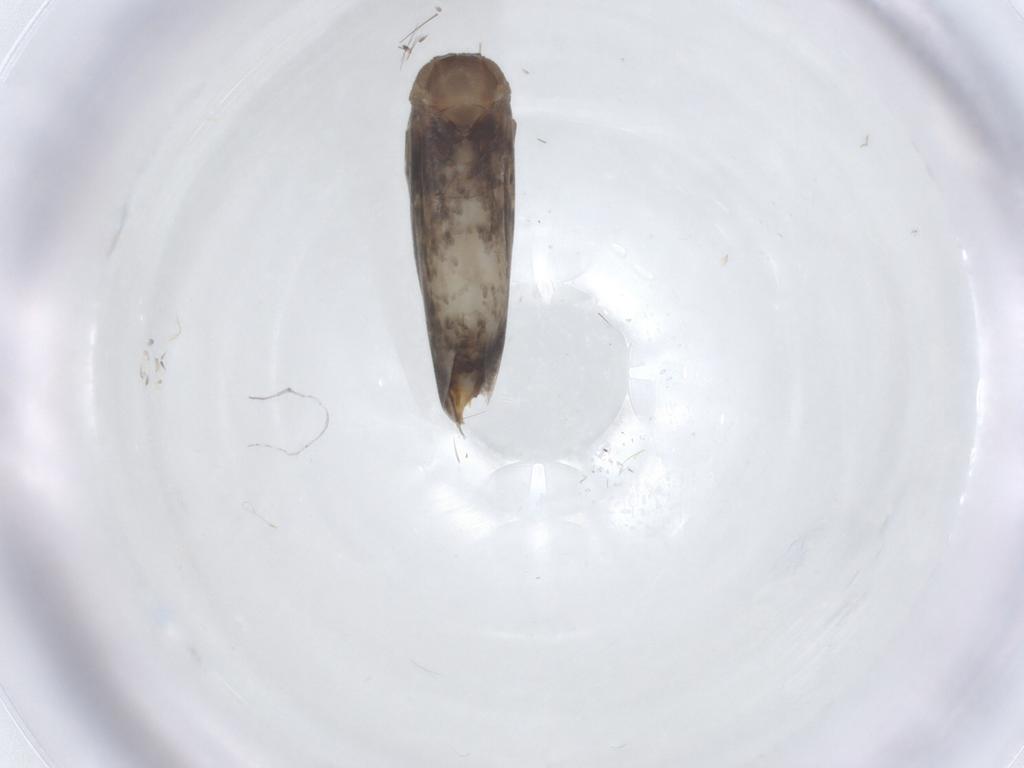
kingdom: Animalia
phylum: Arthropoda
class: Insecta
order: Lepidoptera
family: Elachistidae
